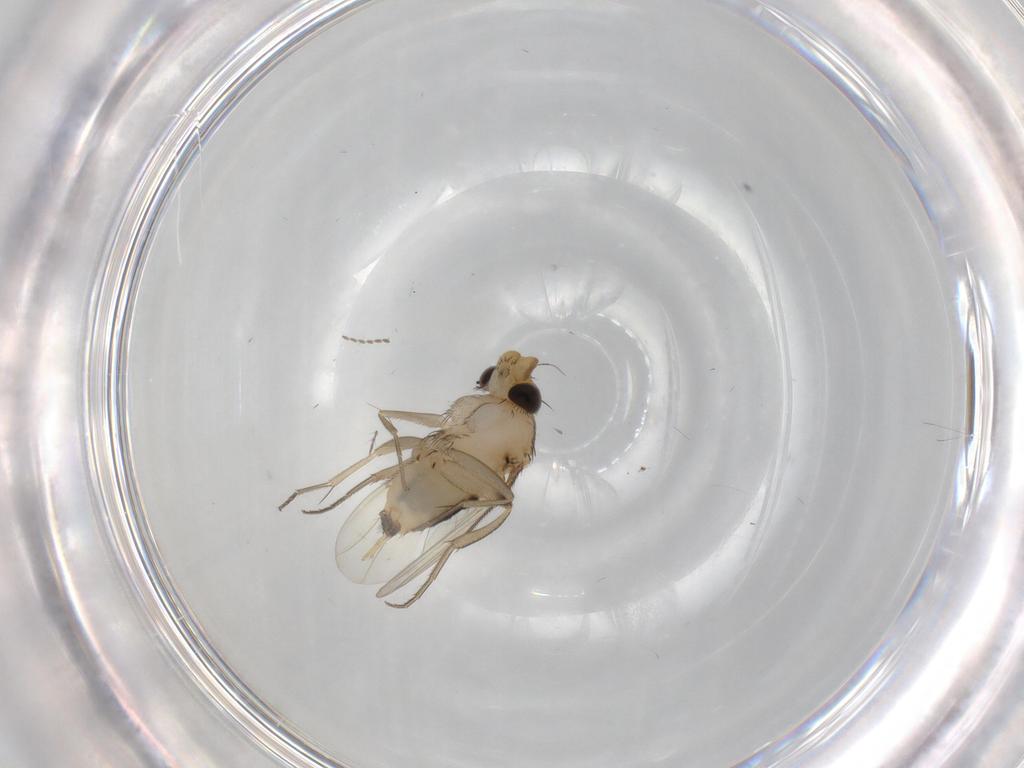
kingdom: Animalia
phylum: Arthropoda
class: Insecta
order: Diptera
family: Phoridae
